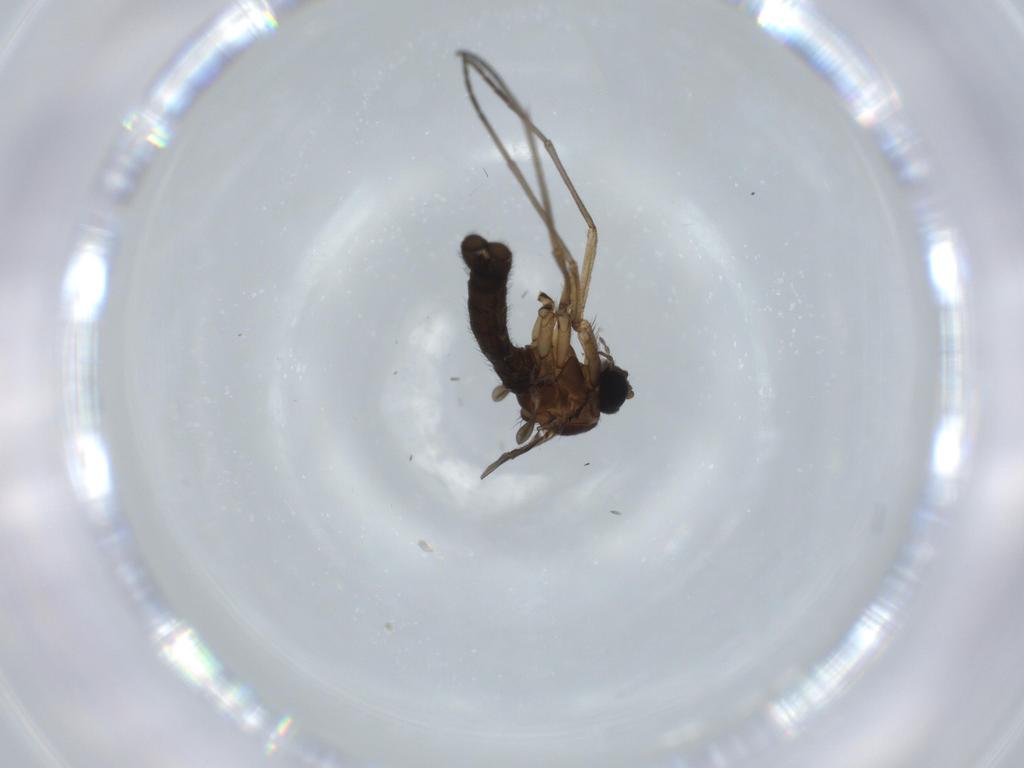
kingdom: Animalia
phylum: Arthropoda
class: Insecta
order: Diptera
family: Sciaridae
